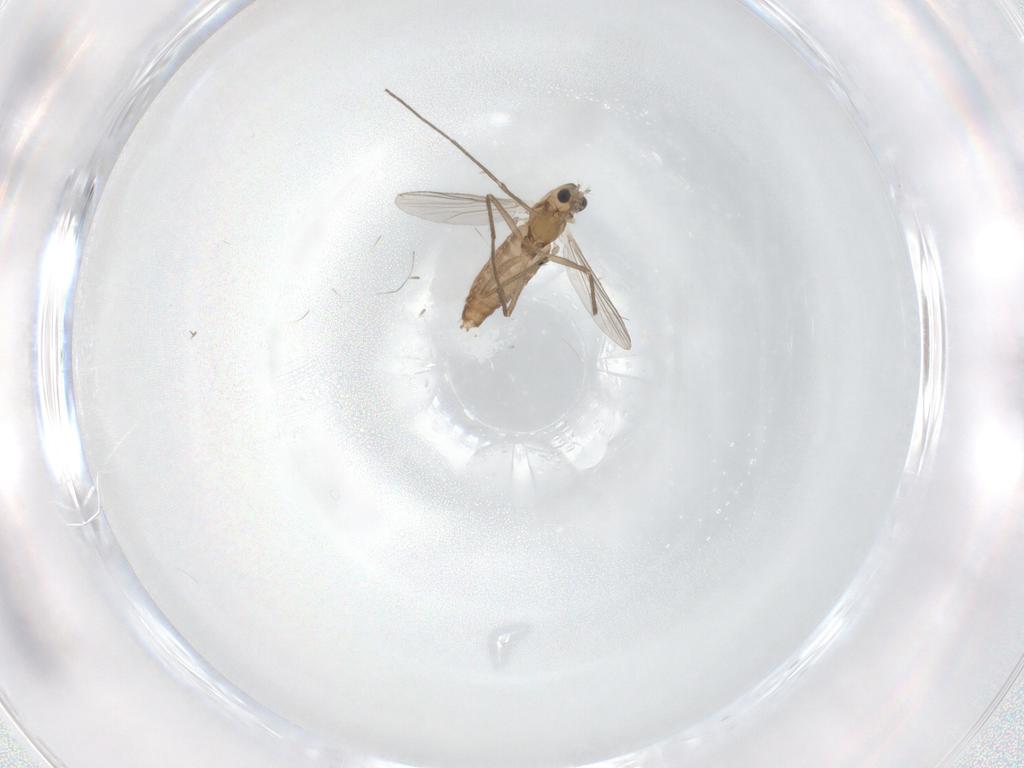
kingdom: Animalia
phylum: Arthropoda
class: Insecta
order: Diptera
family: Chironomidae
